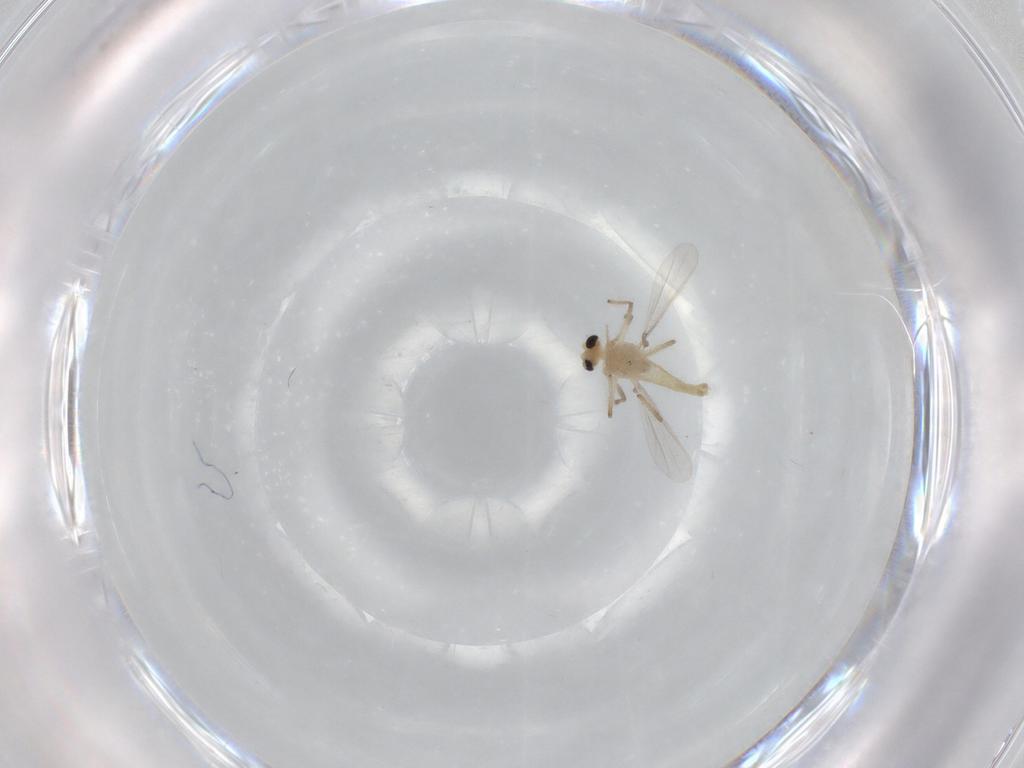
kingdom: Animalia
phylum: Arthropoda
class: Insecta
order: Diptera
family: Chironomidae
